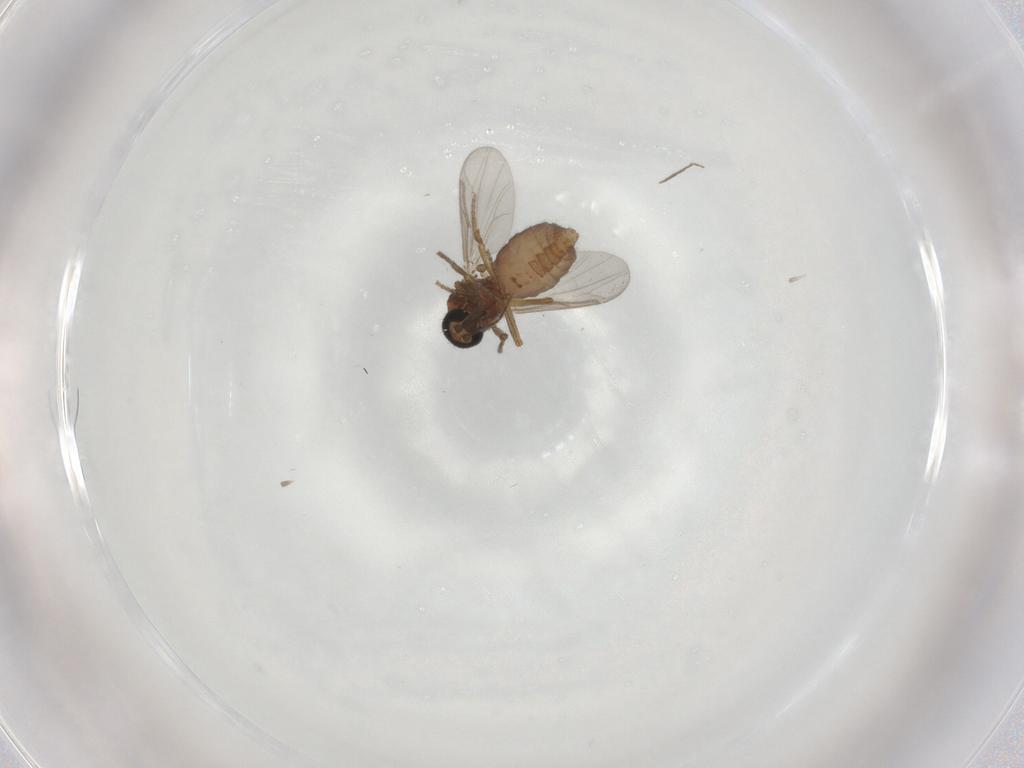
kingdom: Animalia
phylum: Arthropoda
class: Insecta
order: Diptera
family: Ceratopogonidae
